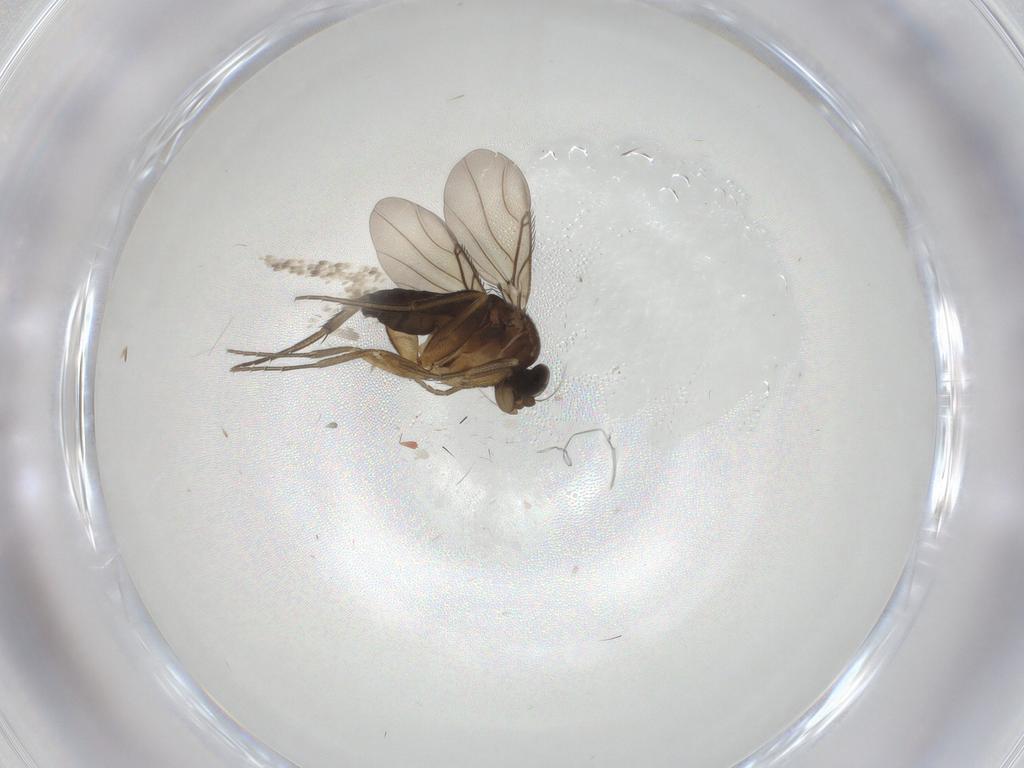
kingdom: Animalia
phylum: Arthropoda
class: Insecta
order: Diptera
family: Phoridae
